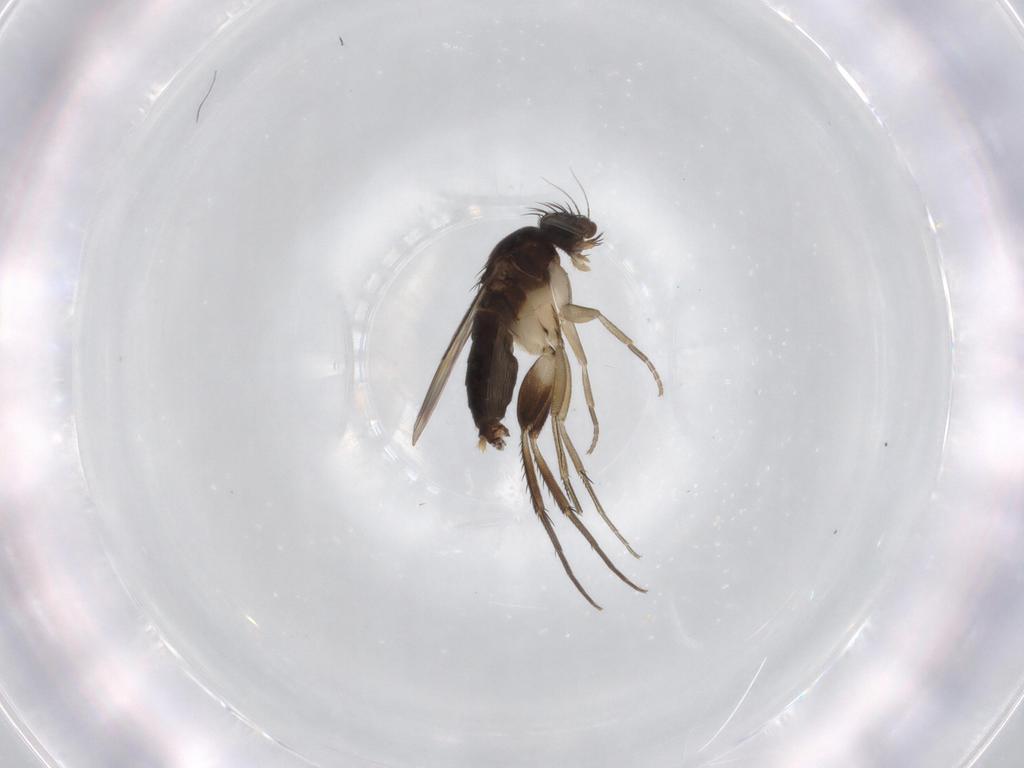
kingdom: Animalia
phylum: Arthropoda
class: Insecta
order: Diptera
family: Phoridae
